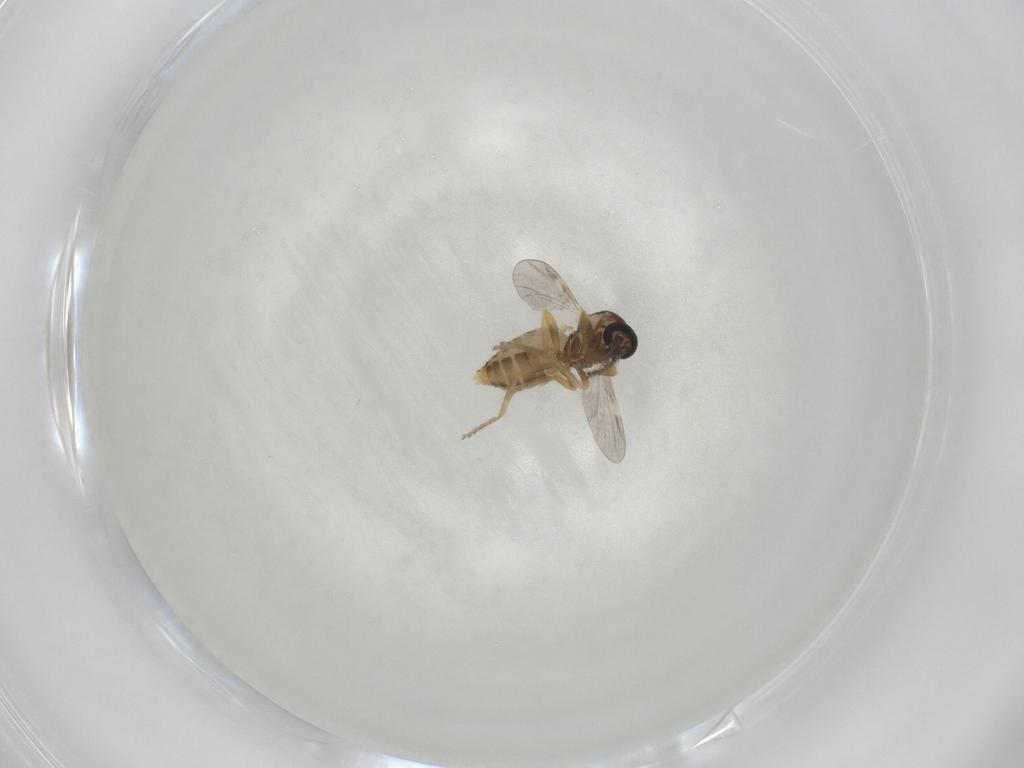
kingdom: Animalia
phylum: Arthropoda
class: Insecta
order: Diptera
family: Ceratopogonidae
